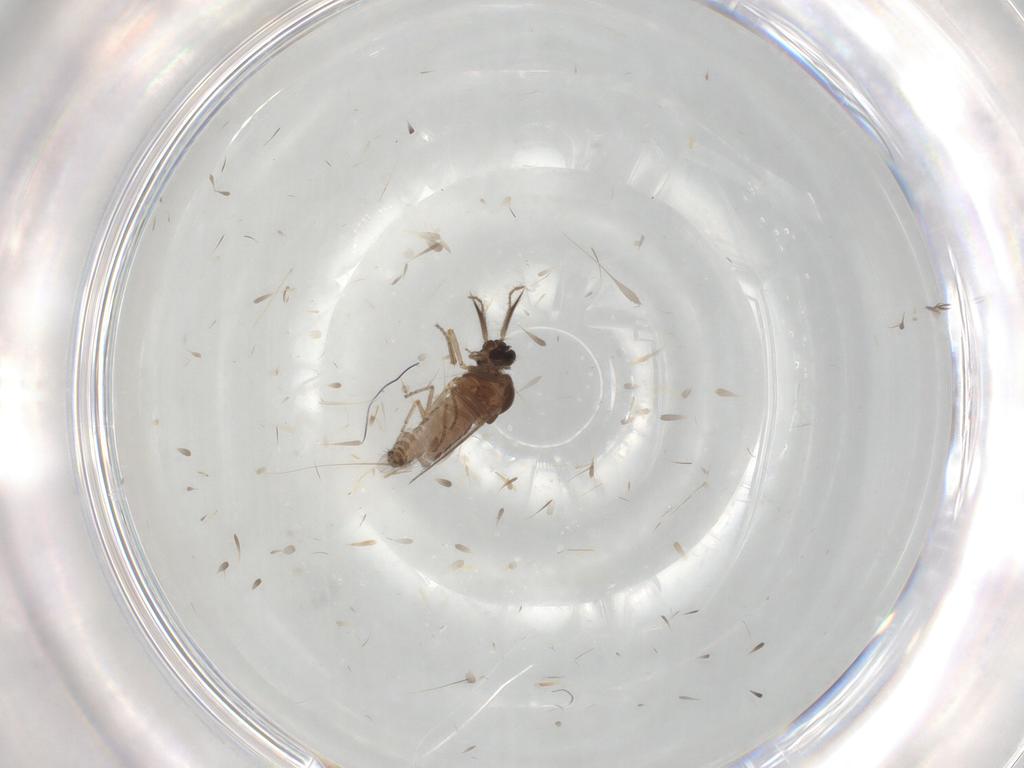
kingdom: Animalia
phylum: Arthropoda
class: Insecta
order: Diptera
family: Ceratopogonidae
